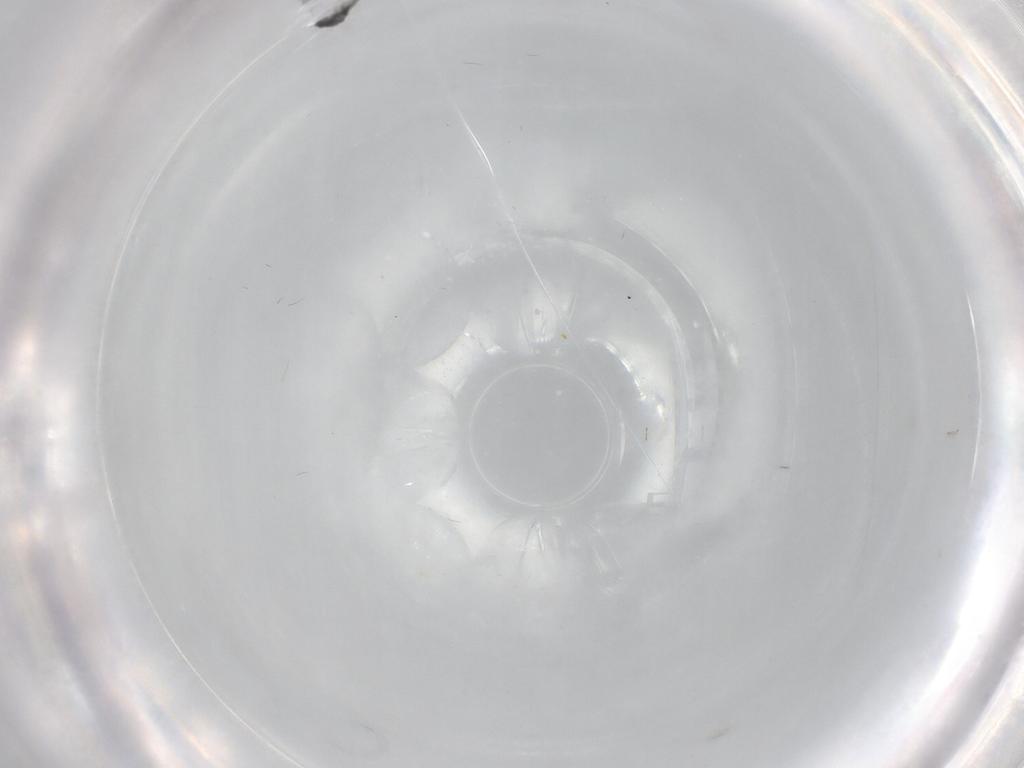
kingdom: Animalia
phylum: Arthropoda
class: Insecta
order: Hymenoptera
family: Trichogrammatidae
